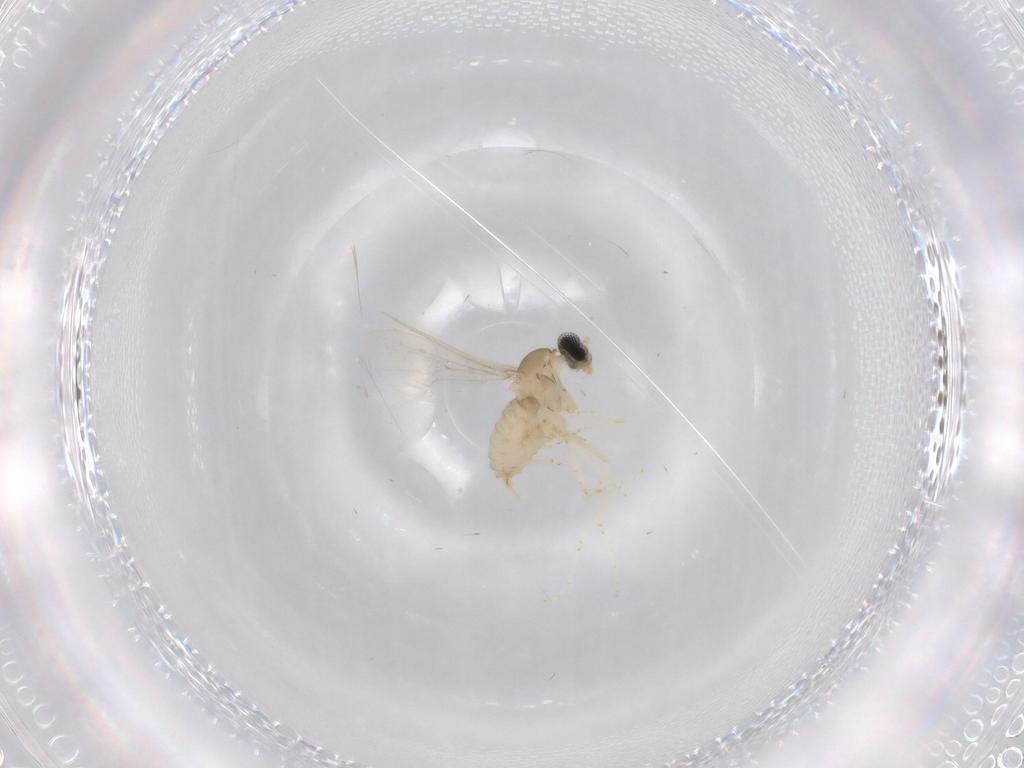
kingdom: Animalia
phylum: Arthropoda
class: Insecta
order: Diptera
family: Cecidomyiidae
